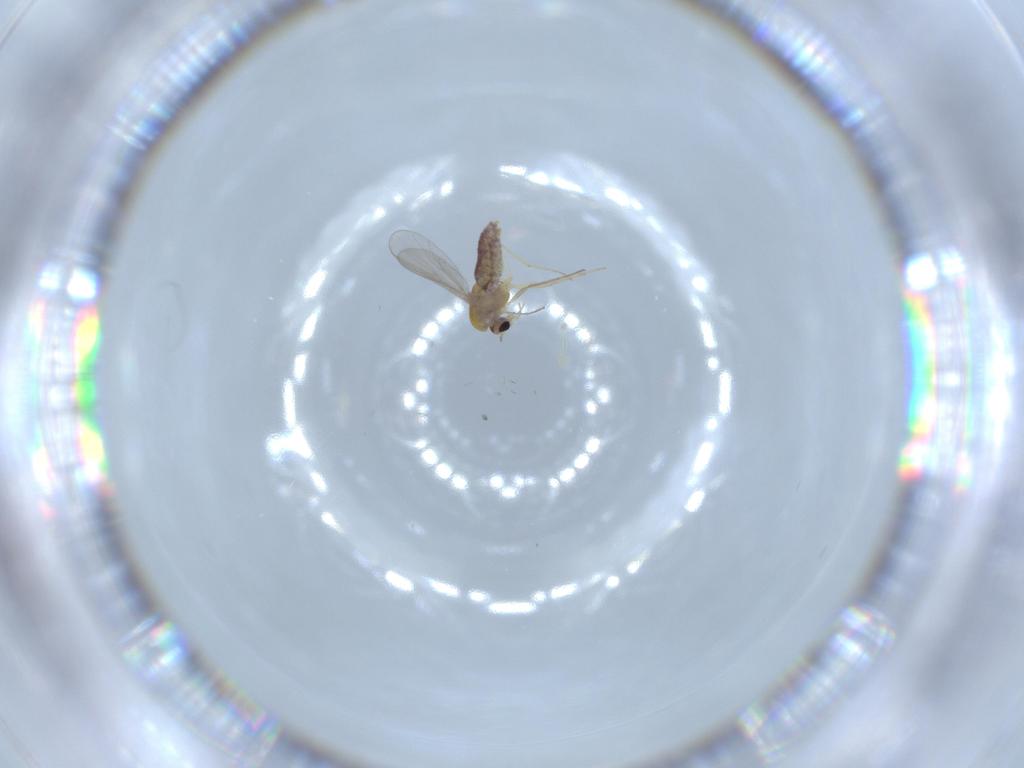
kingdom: Animalia
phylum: Arthropoda
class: Insecta
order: Diptera
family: Chironomidae
